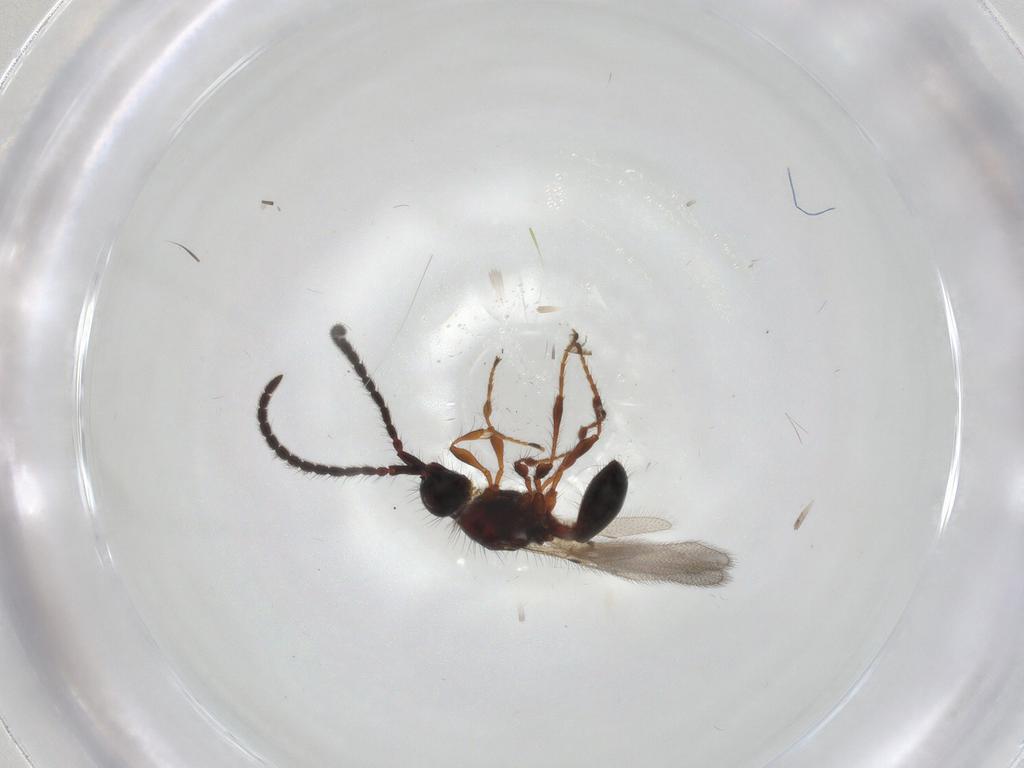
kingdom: Animalia
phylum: Arthropoda
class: Insecta
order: Hymenoptera
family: Diapriidae
